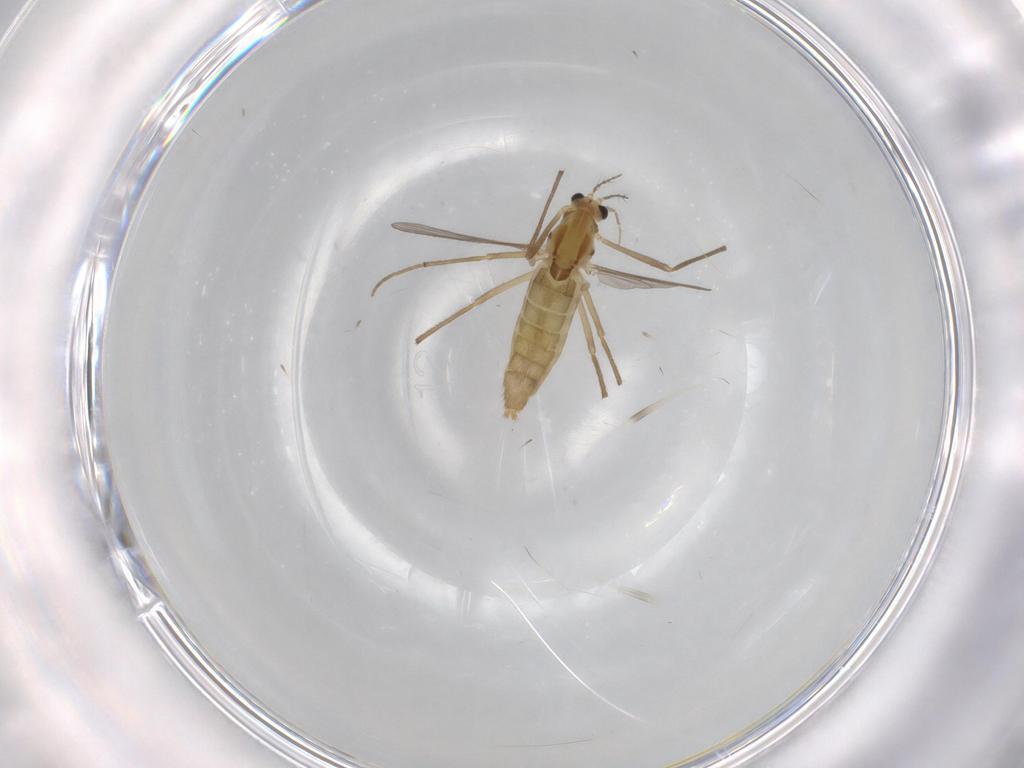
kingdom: Animalia
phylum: Arthropoda
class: Insecta
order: Diptera
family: Chironomidae
